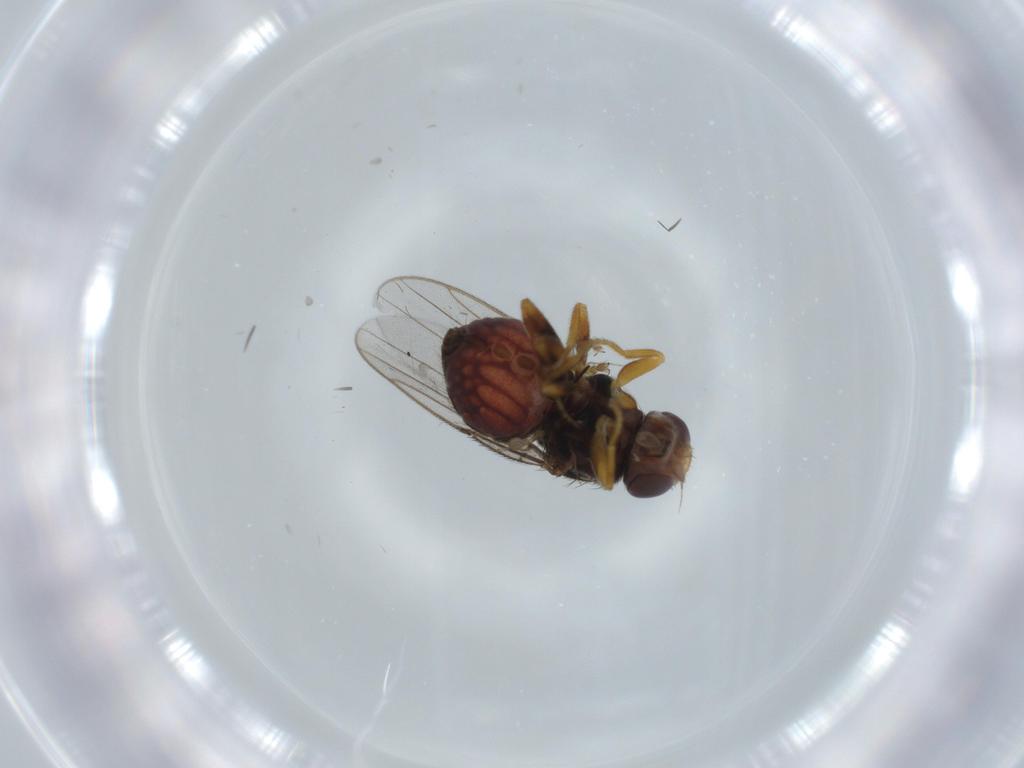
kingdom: Animalia
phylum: Arthropoda
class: Insecta
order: Diptera
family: Chloropidae
